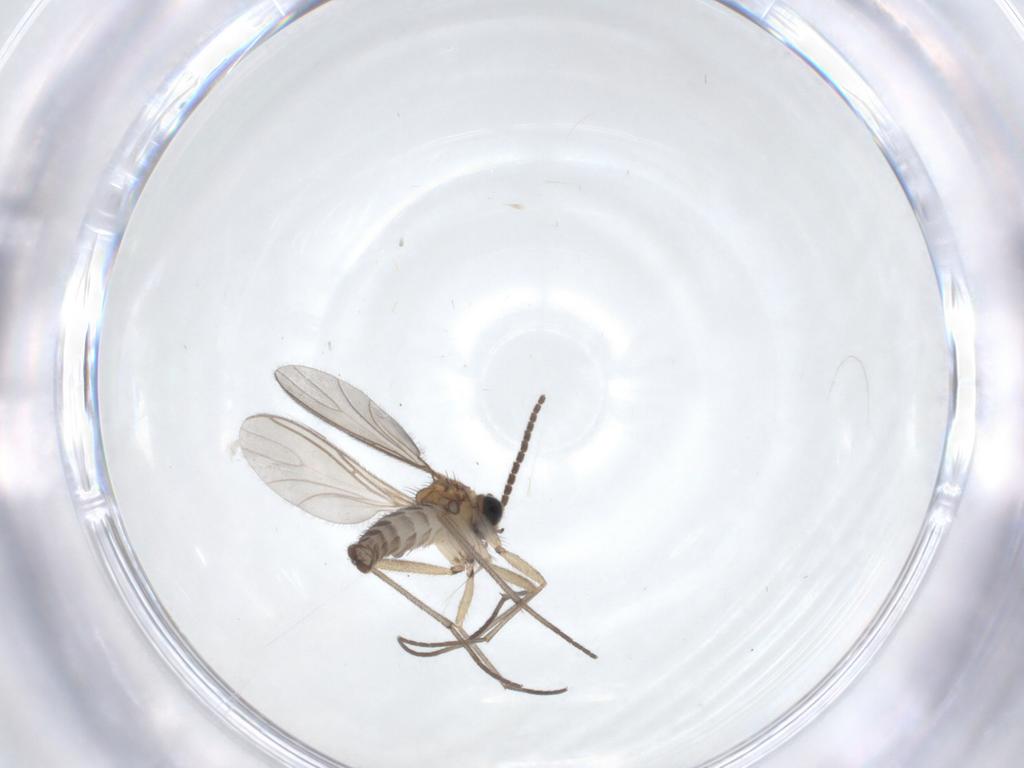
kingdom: Animalia
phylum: Arthropoda
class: Insecta
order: Diptera
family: Sciaridae
